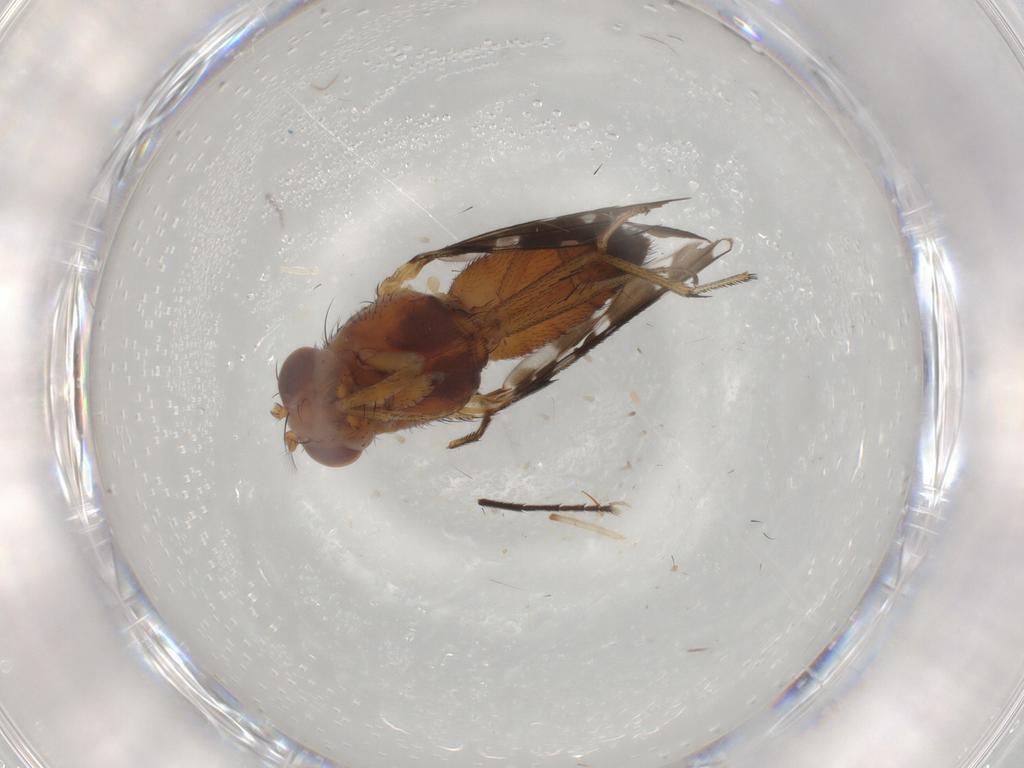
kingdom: Animalia
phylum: Arthropoda
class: Insecta
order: Diptera
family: Ephydridae
